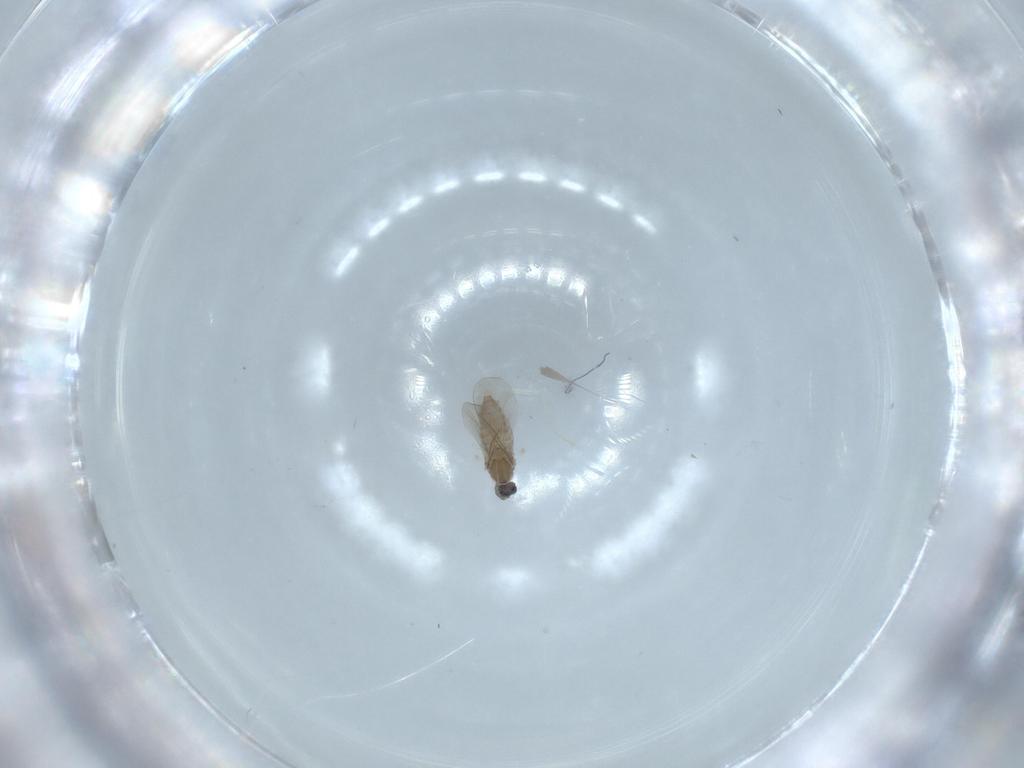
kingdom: Animalia
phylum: Arthropoda
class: Insecta
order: Diptera
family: Cecidomyiidae
